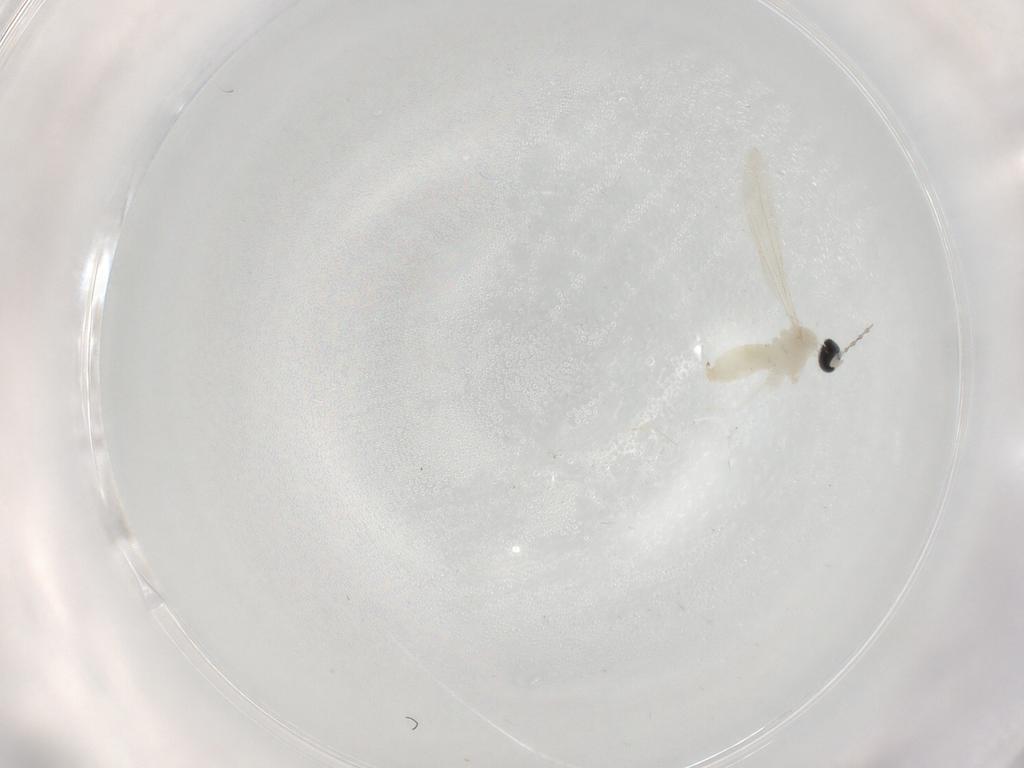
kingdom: Animalia
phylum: Arthropoda
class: Insecta
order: Diptera
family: Cecidomyiidae
